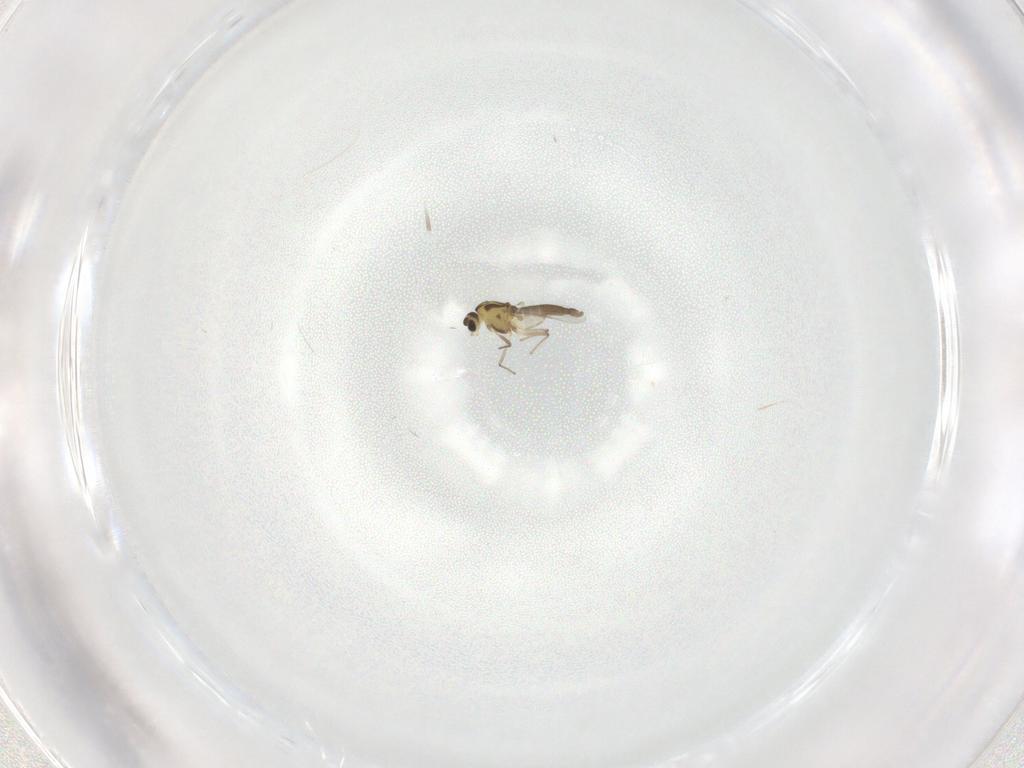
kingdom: Animalia
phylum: Arthropoda
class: Insecta
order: Diptera
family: Chironomidae
